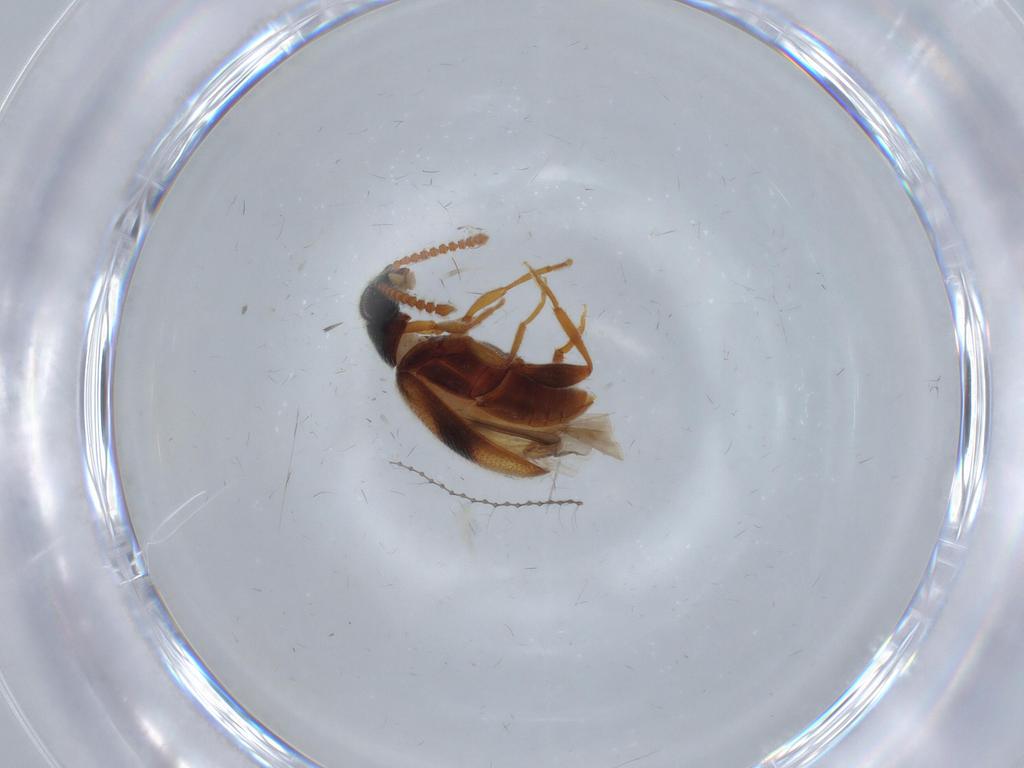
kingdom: Animalia
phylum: Arthropoda
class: Insecta
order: Coleoptera
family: Aderidae
